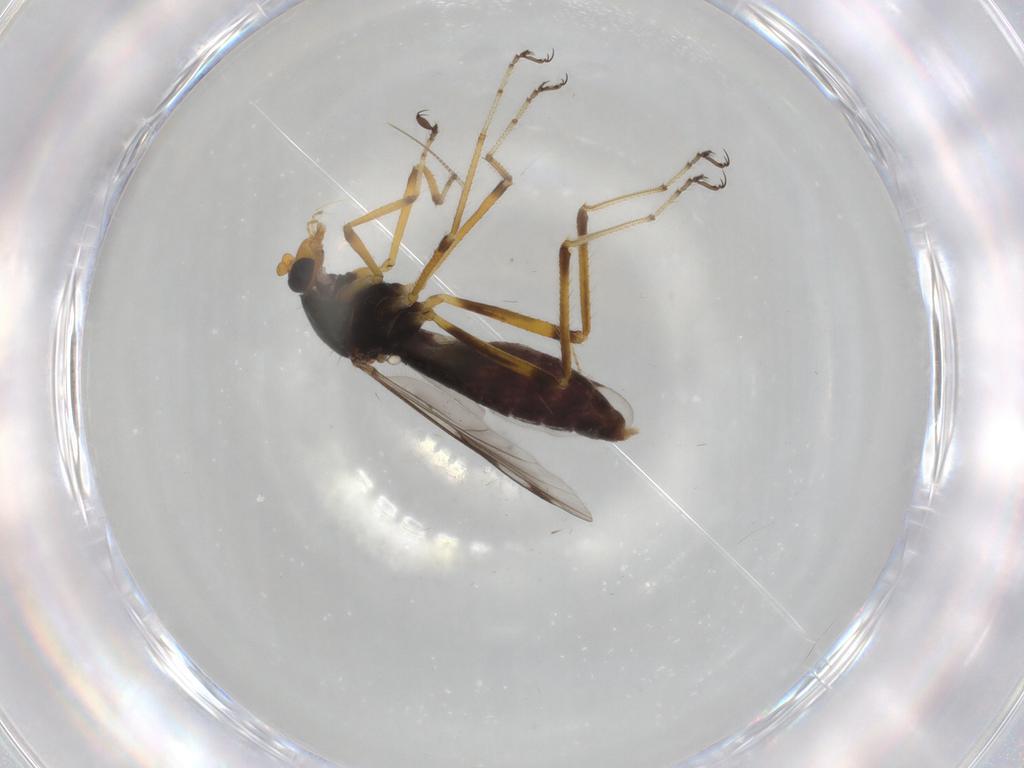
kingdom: Animalia
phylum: Arthropoda
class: Insecta
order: Diptera
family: Ceratopogonidae
